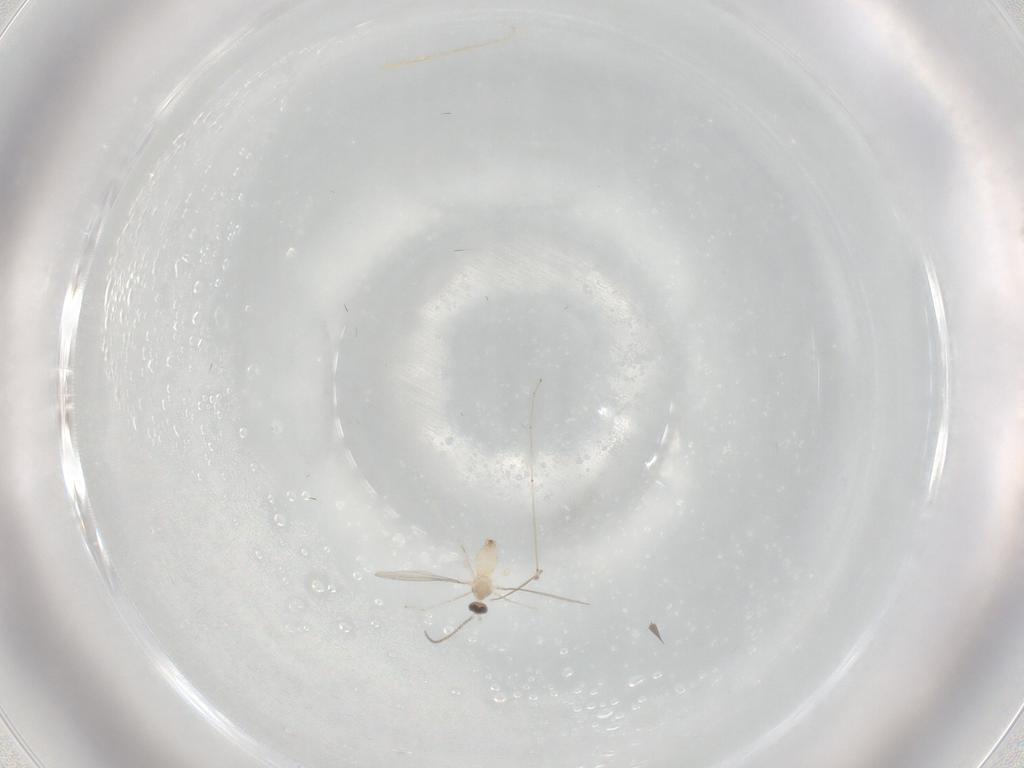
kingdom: Animalia
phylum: Arthropoda
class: Insecta
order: Diptera
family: Cecidomyiidae
